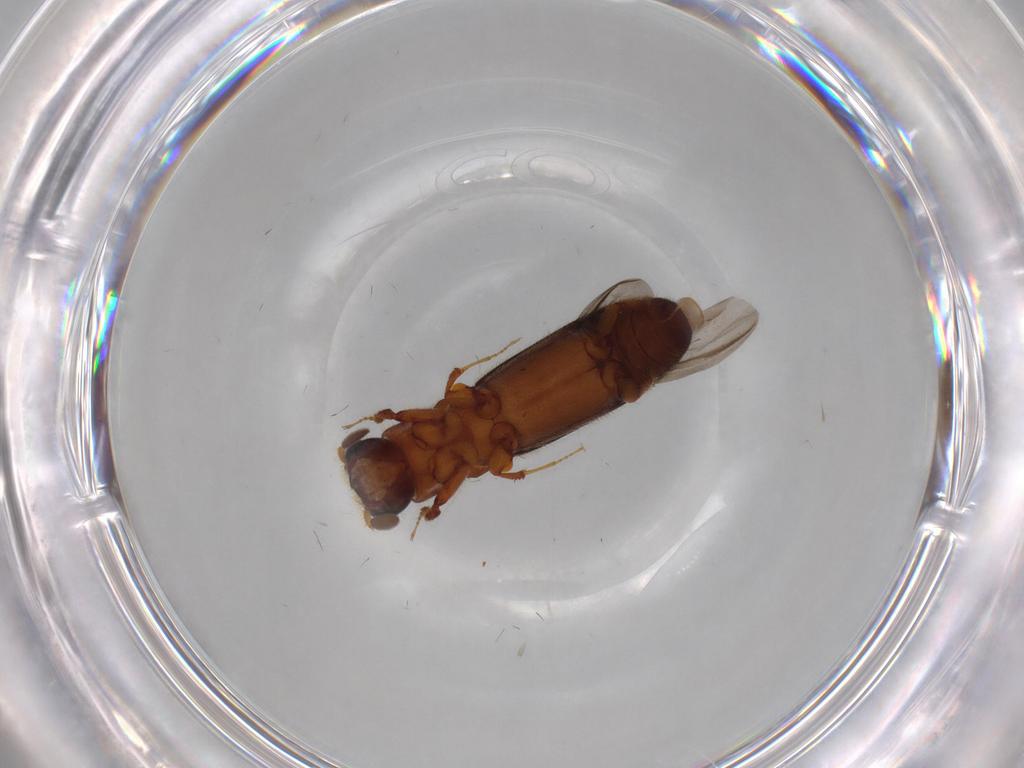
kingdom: Animalia
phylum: Arthropoda
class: Insecta
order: Coleoptera
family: Curculionidae
